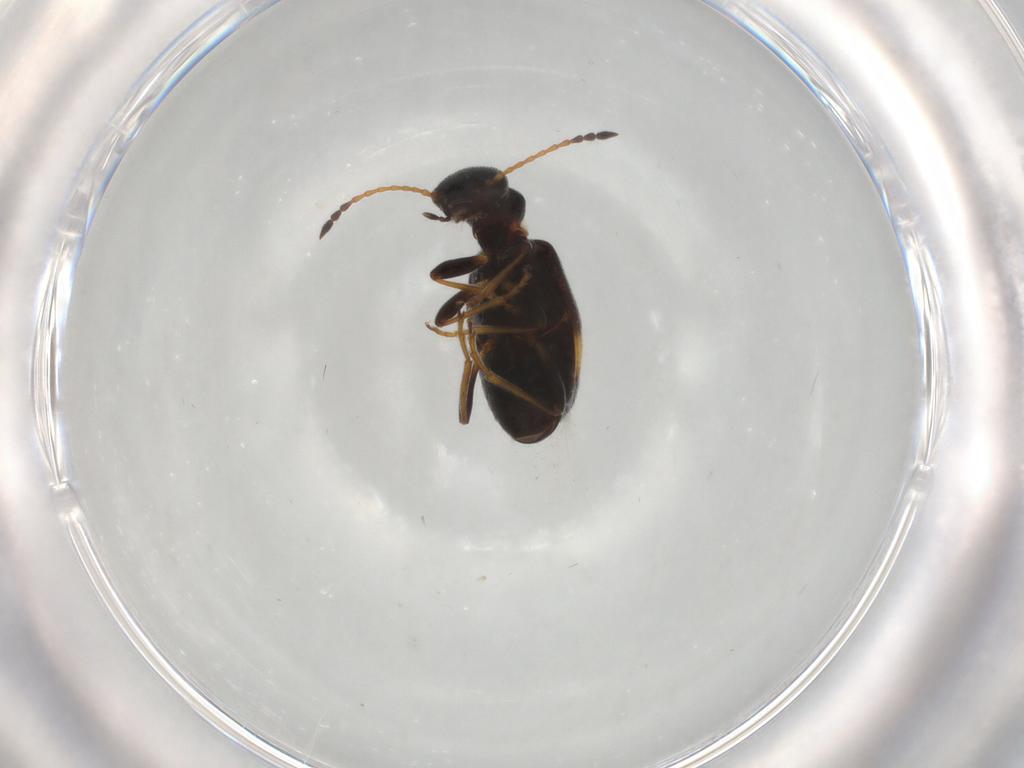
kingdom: Animalia
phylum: Arthropoda
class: Insecta
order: Coleoptera
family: Anthicidae
